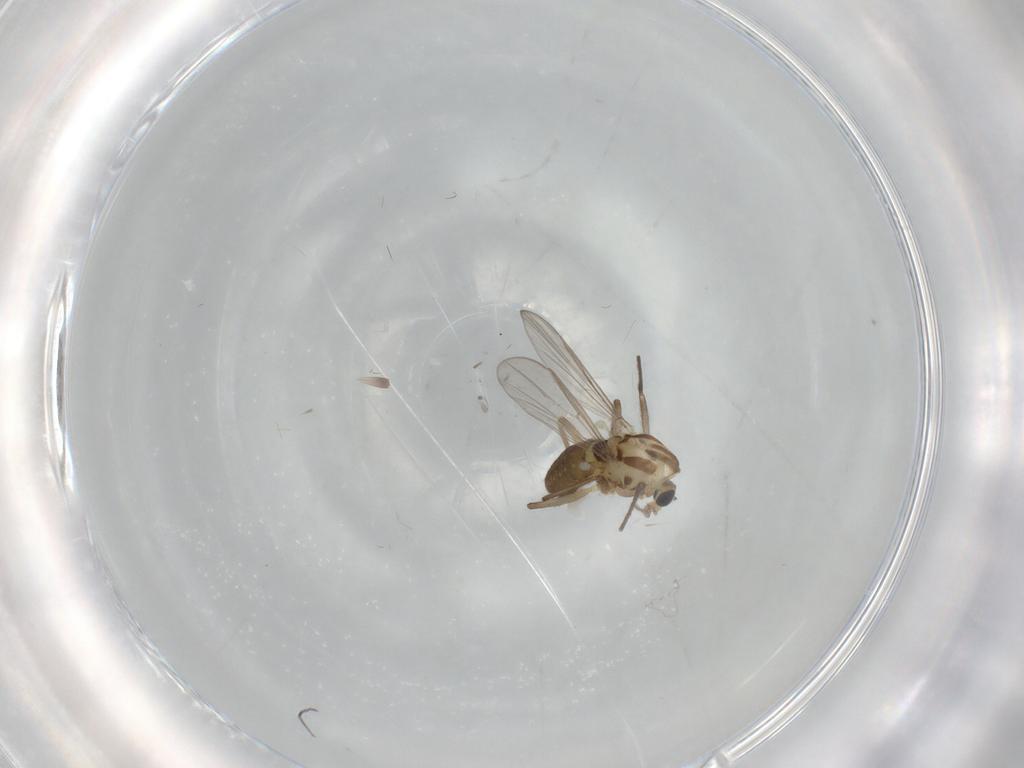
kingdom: Animalia
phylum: Arthropoda
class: Insecta
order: Diptera
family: Chironomidae
